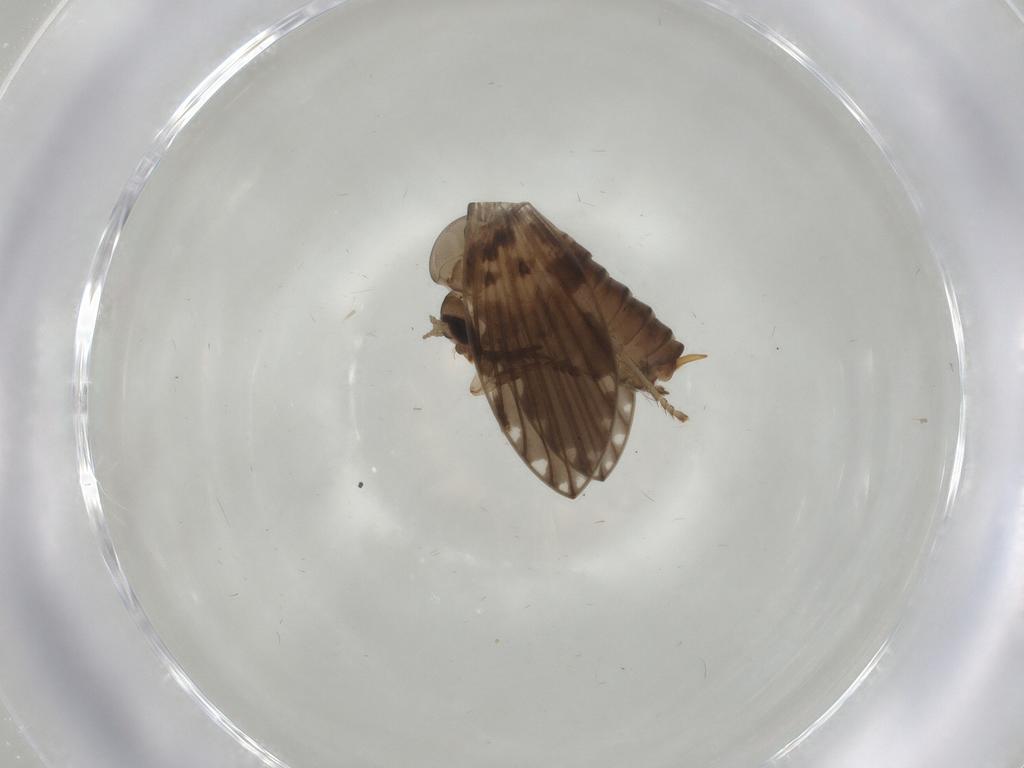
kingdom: Animalia
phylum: Arthropoda
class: Insecta
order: Diptera
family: Psychodidae
